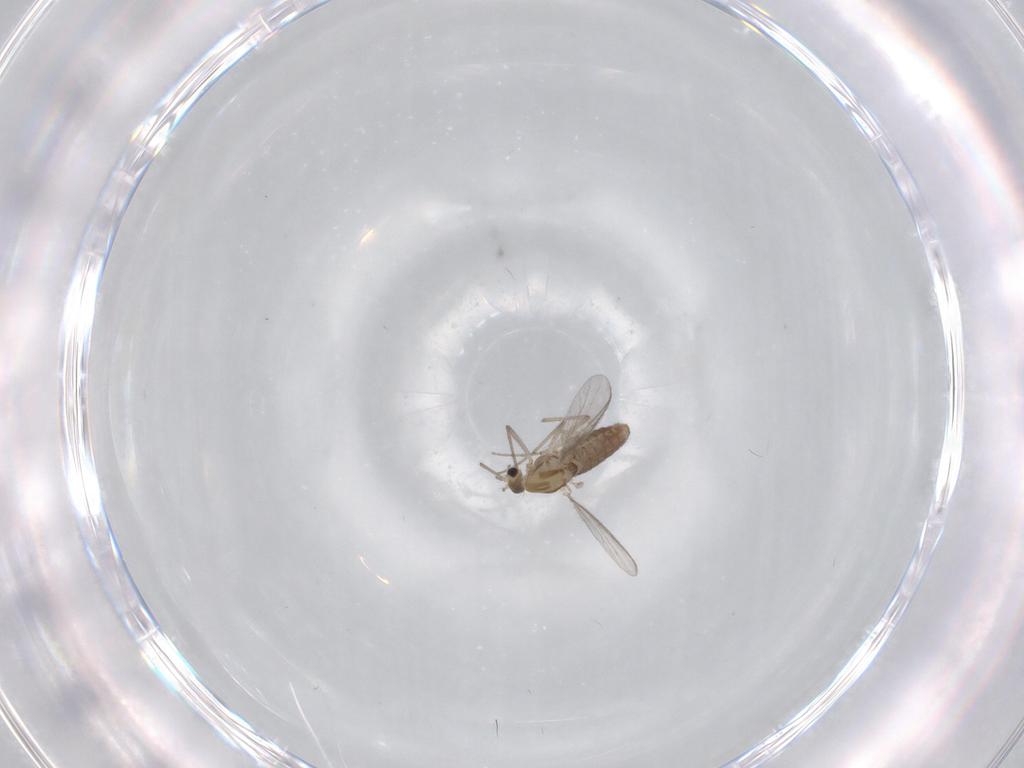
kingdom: Animalia
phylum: Arthropoda
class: Insecta
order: Diptera
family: Chironomidae
